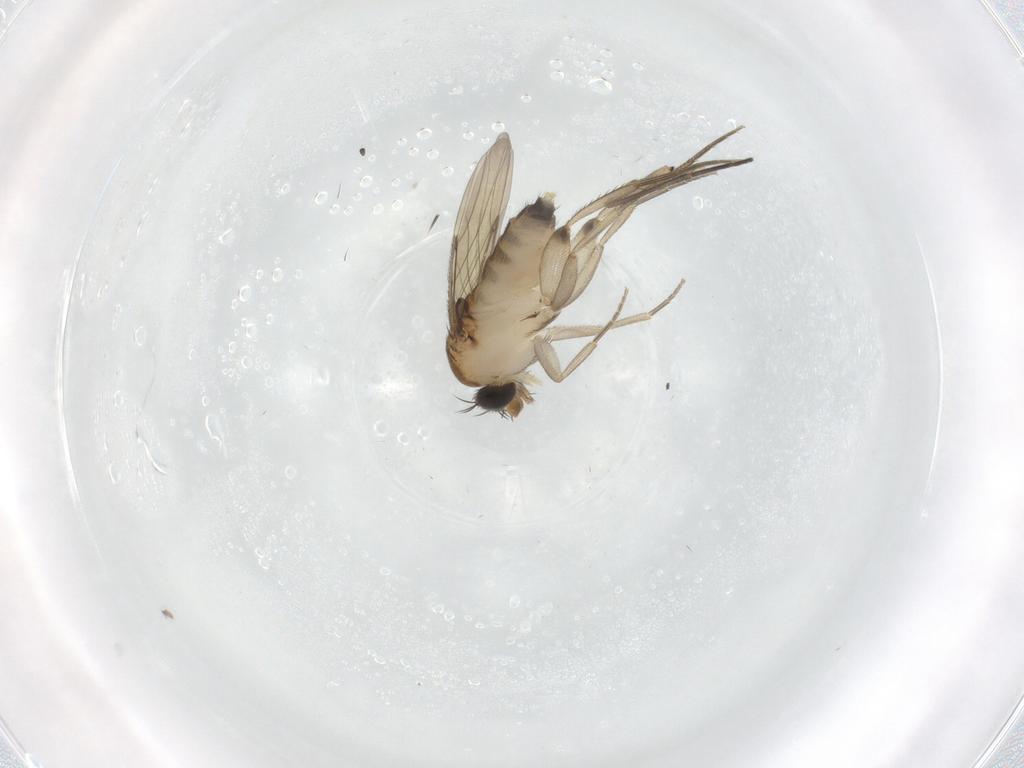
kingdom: Animalia
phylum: Arthropoda
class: Insecta
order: Diptera
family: Phoridae
